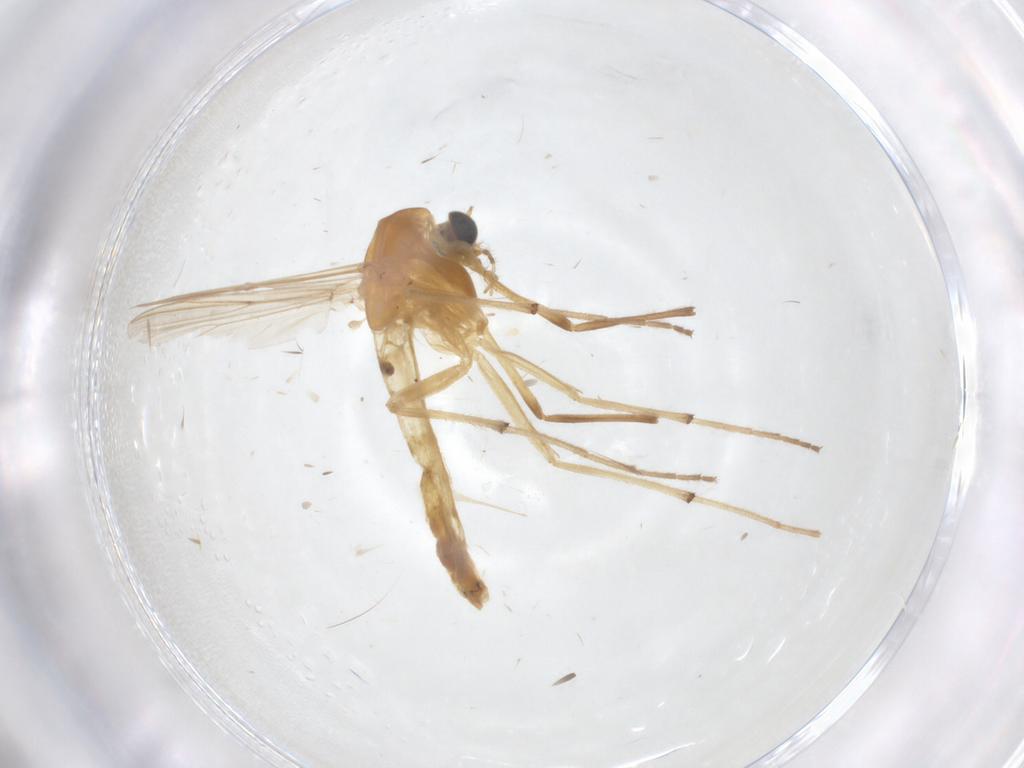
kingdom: Animalia
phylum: Arthropoda
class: Insecta
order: Diptera
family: Chironomidae
